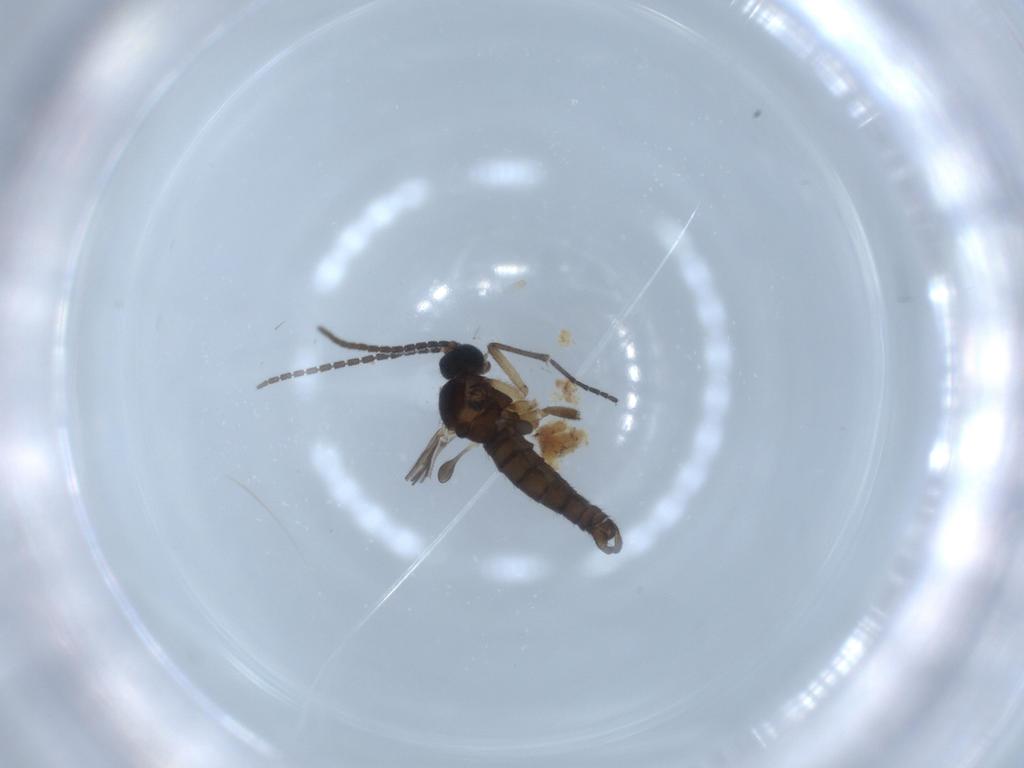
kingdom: Animalia
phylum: Arthropoda
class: Insecta
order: Diptera
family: Sciaridae
